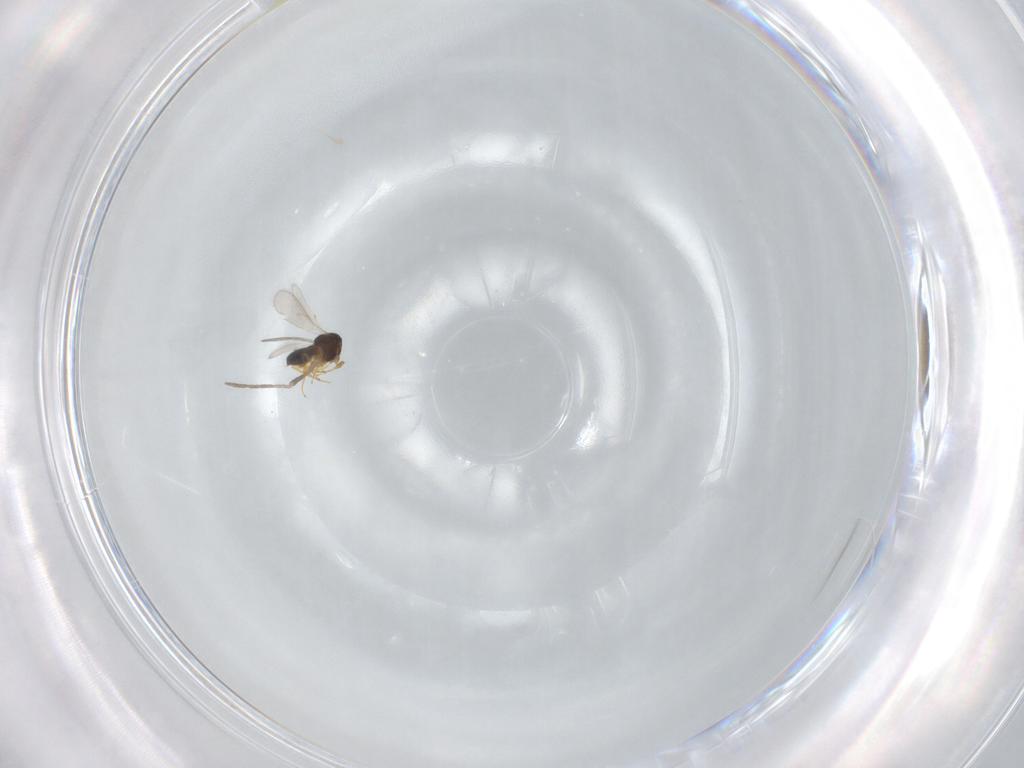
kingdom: Animalia
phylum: Arthropoda
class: Insecta
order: Hymenoptera
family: Scelionidae
